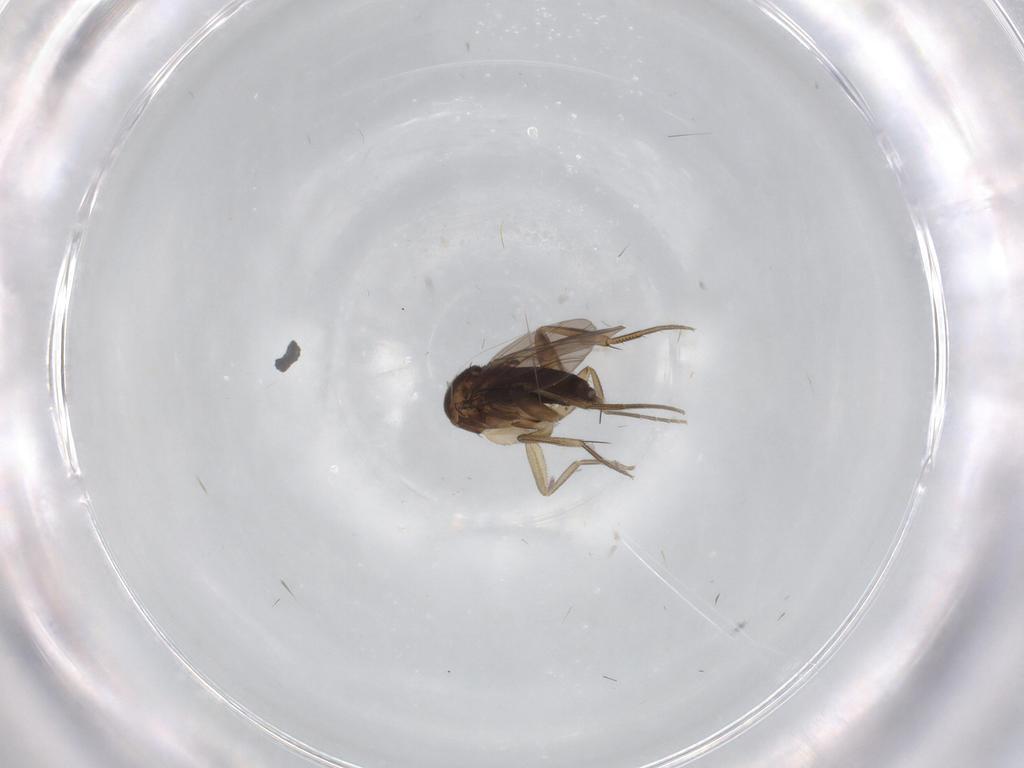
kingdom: Animalia
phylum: Arthropoda
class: Insecta
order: Diptera
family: Phoridae
